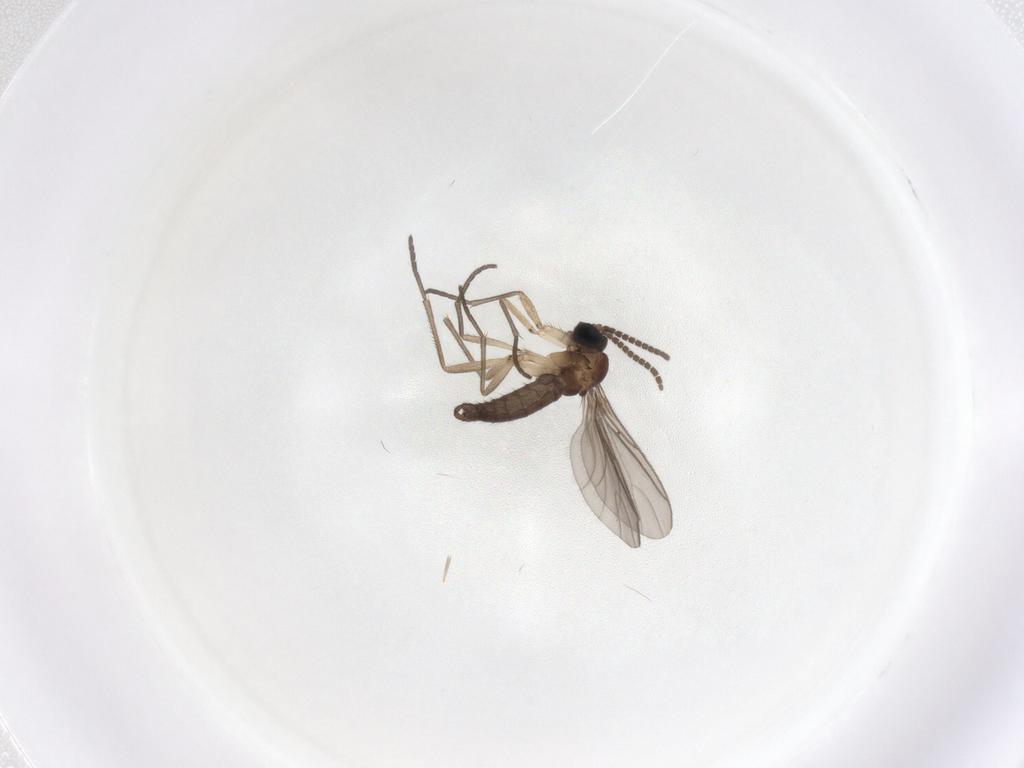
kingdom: Animalia
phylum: Arthropoda
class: Insecta
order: Diptera
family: Sciaridae
